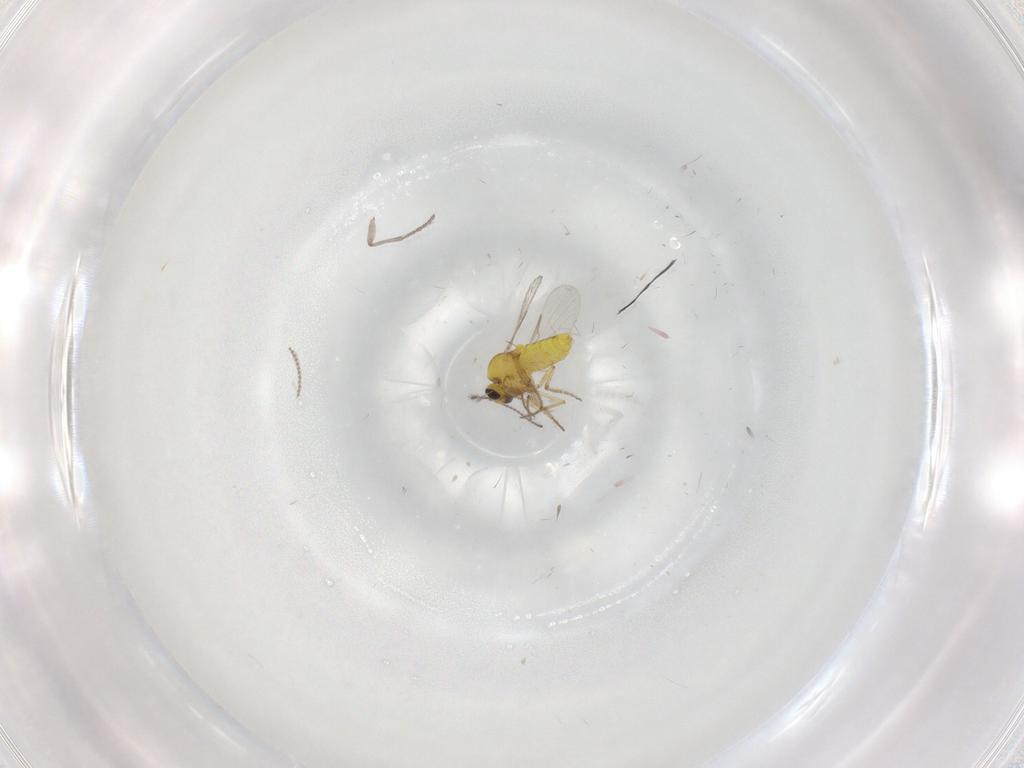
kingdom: Animalia
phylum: Arthropoda
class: Insecta
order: Diptera
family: Ceratopogonidae
